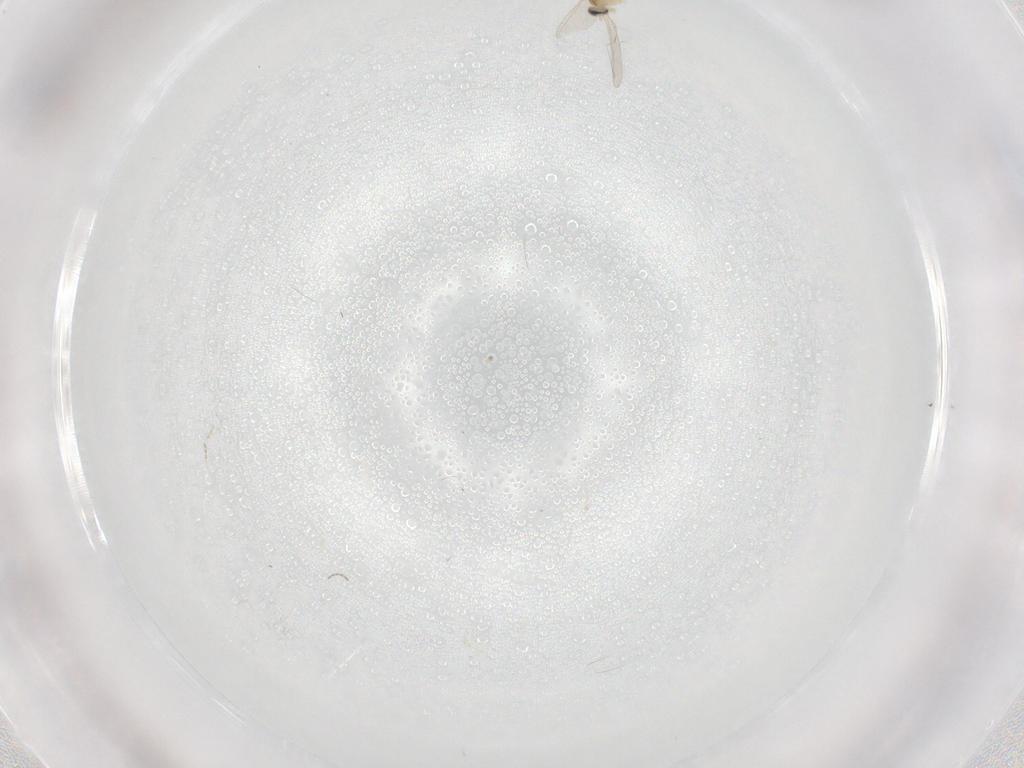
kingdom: Animalia
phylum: Arthropoda
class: Insecta
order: Diptera
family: Cecidomyiidae
